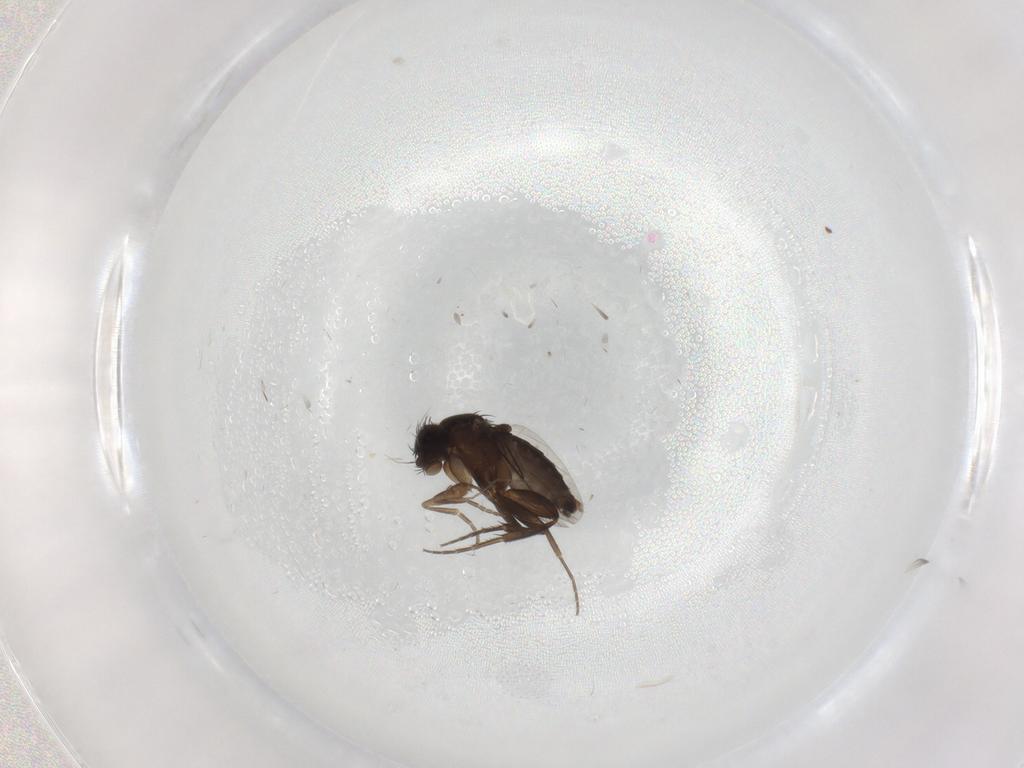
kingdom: Animalia
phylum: Arthropoda
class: Insecta
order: Diptera
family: Phoridae
